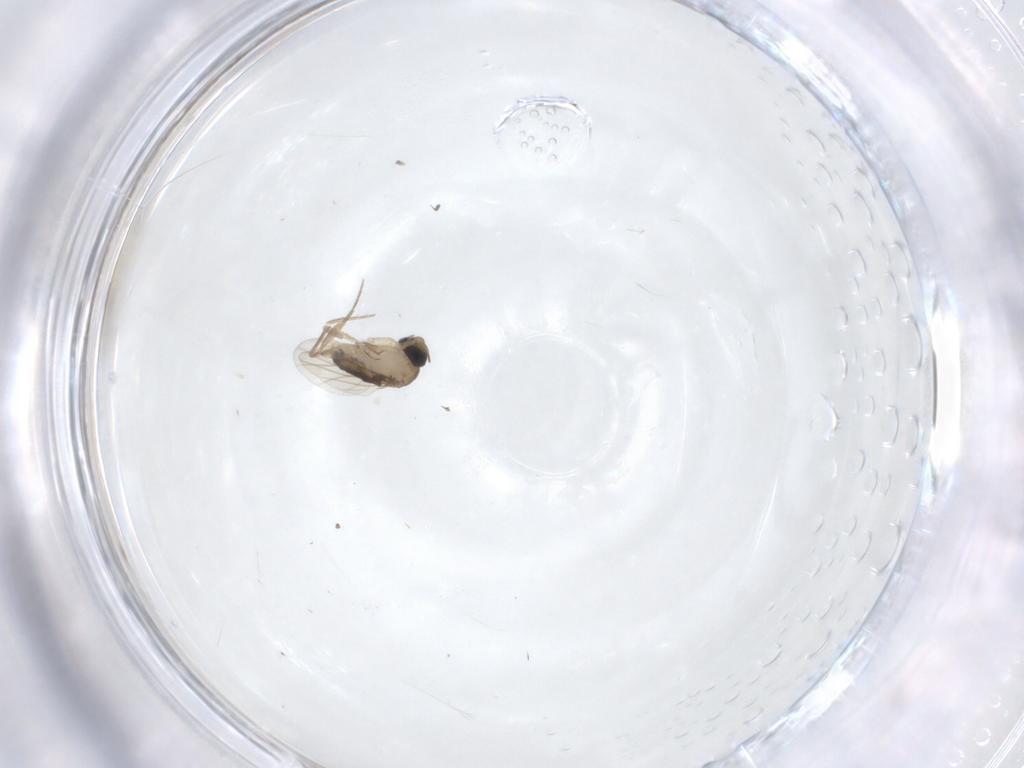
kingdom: Animalia
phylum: Arthropoda
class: Insecta
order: Diptera
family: Phoridae
